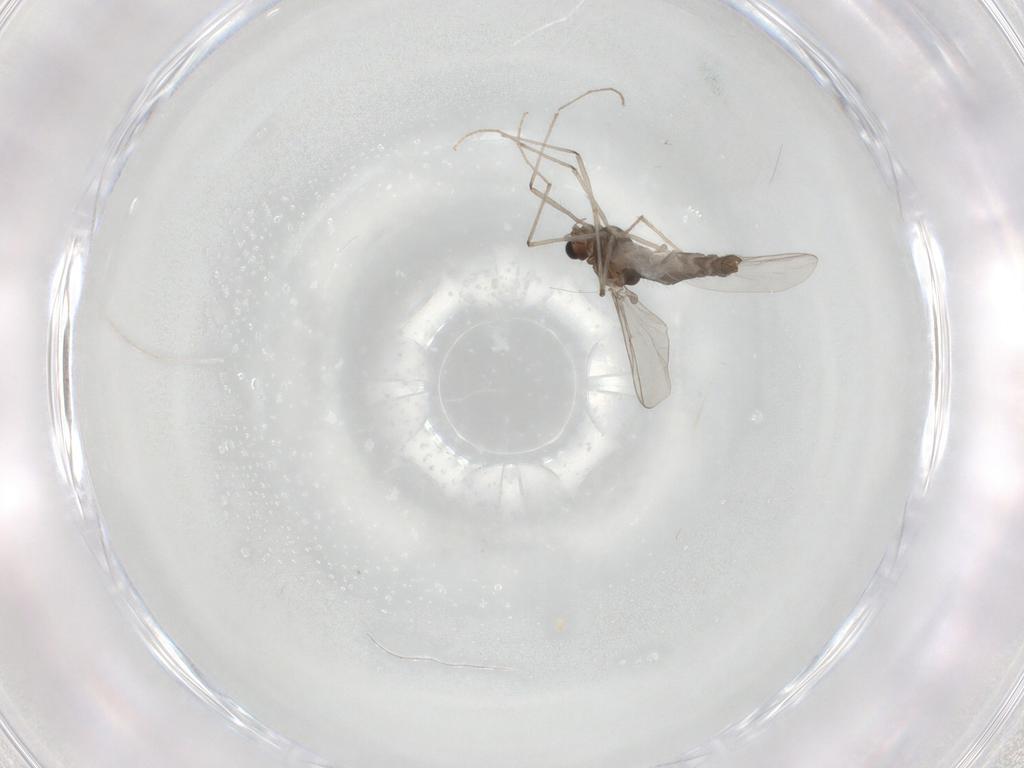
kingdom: Animalia
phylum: Arthropoda
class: Insecta
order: Diptera
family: Chironomidae
